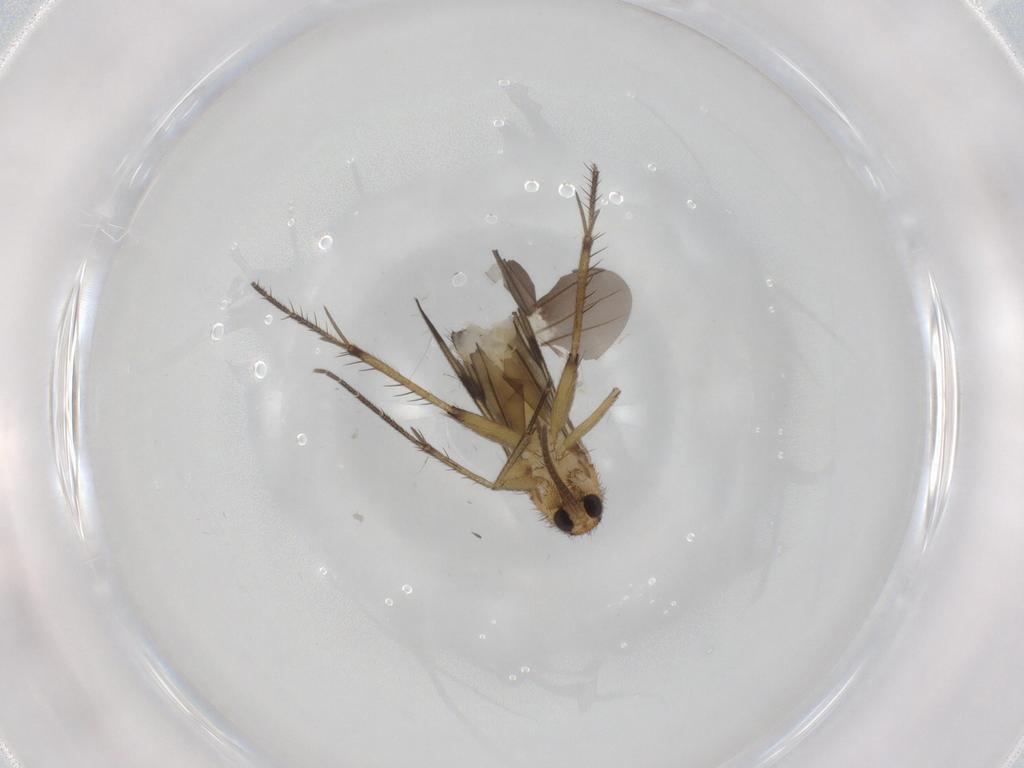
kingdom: Animalia
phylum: Arthropoda
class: Insecta
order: Diptera
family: Mycetophilidae
